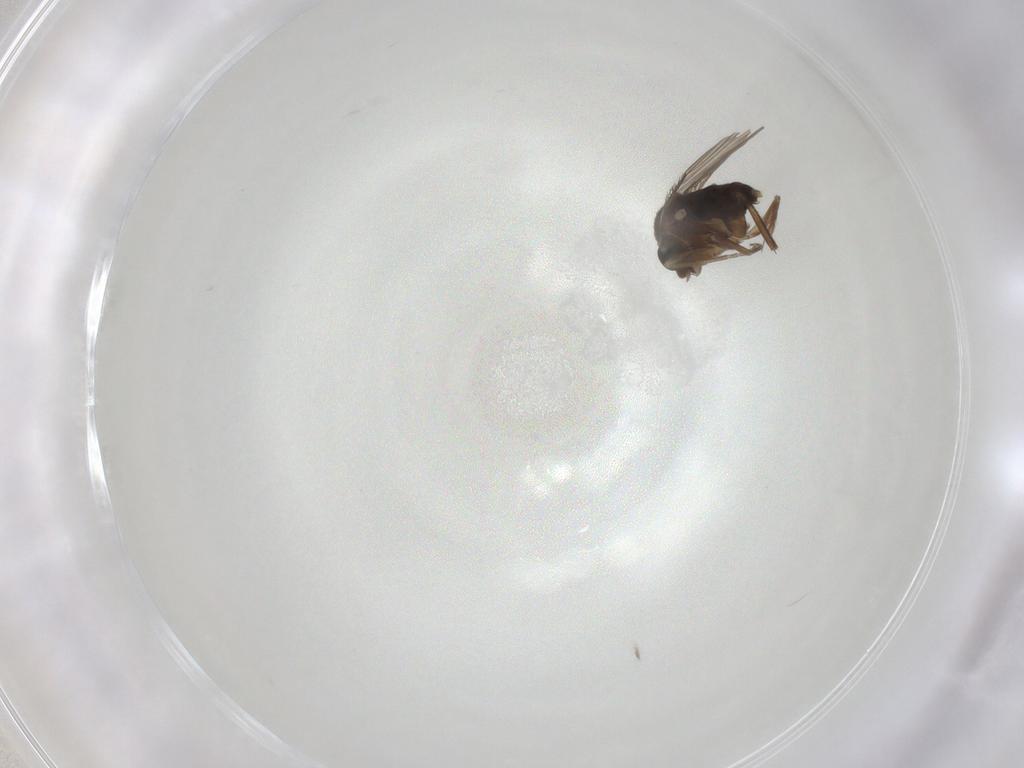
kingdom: Animalia
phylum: Arthropoda
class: Insecta
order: Diptera
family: Phoridae
